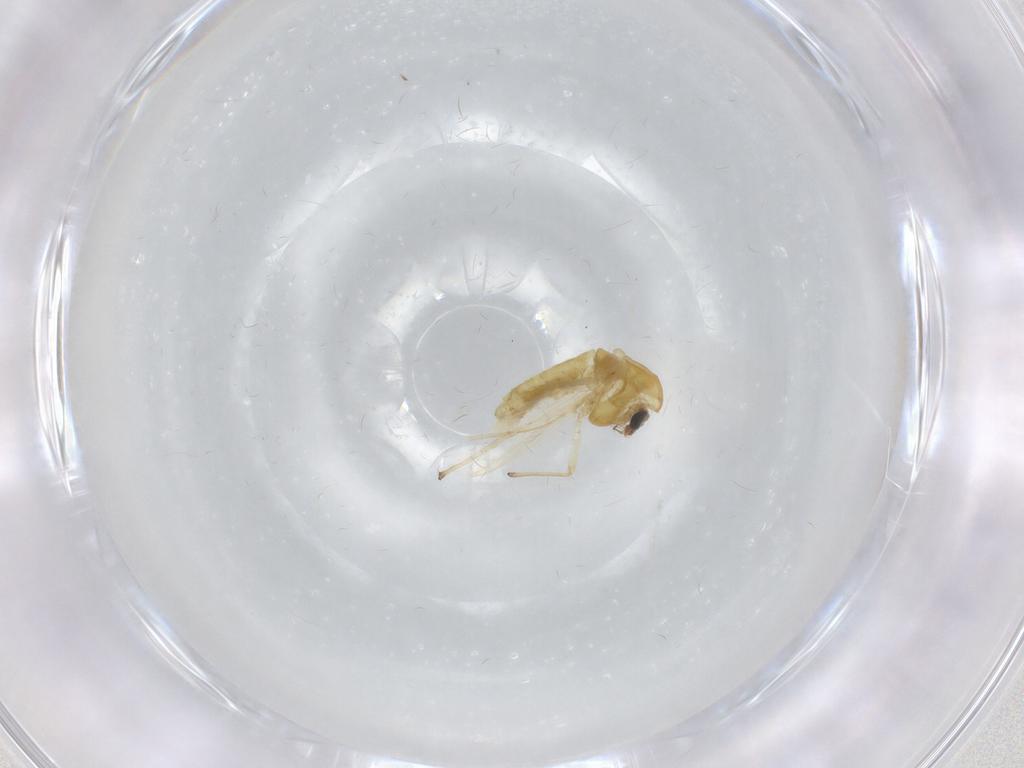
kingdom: Animalia
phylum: Arthropoda
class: Insecta
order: Diptera
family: Chironomidae
